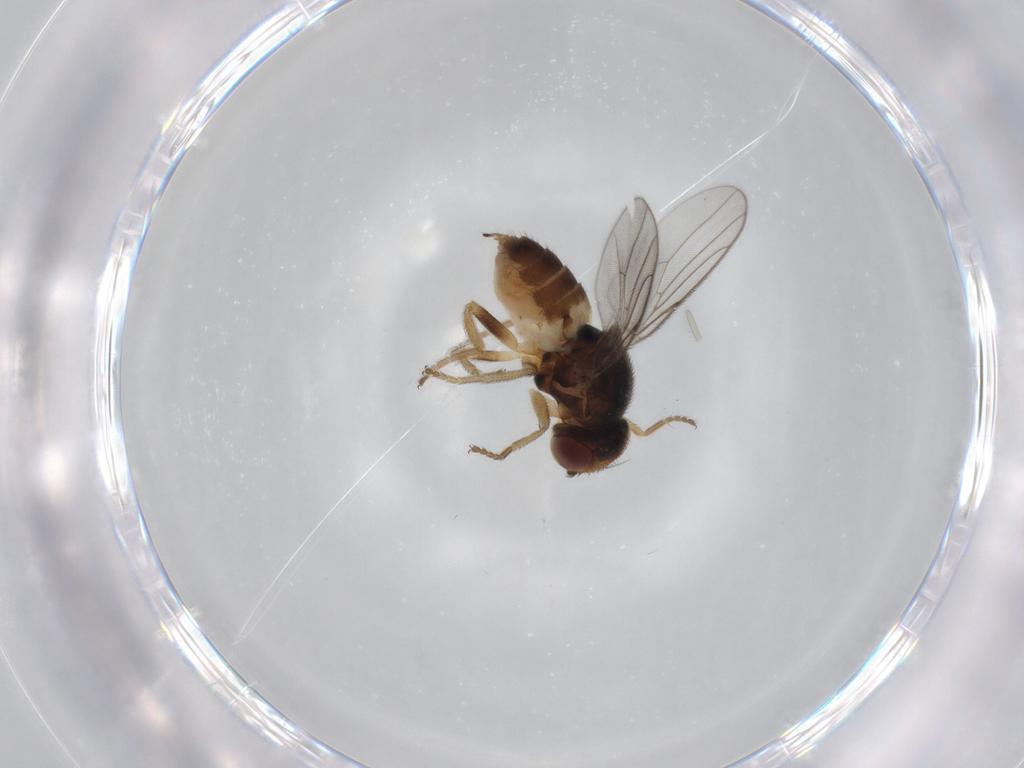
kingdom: Animalia
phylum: Arthropoda
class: Insecta
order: Diptera
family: Chloropidae
